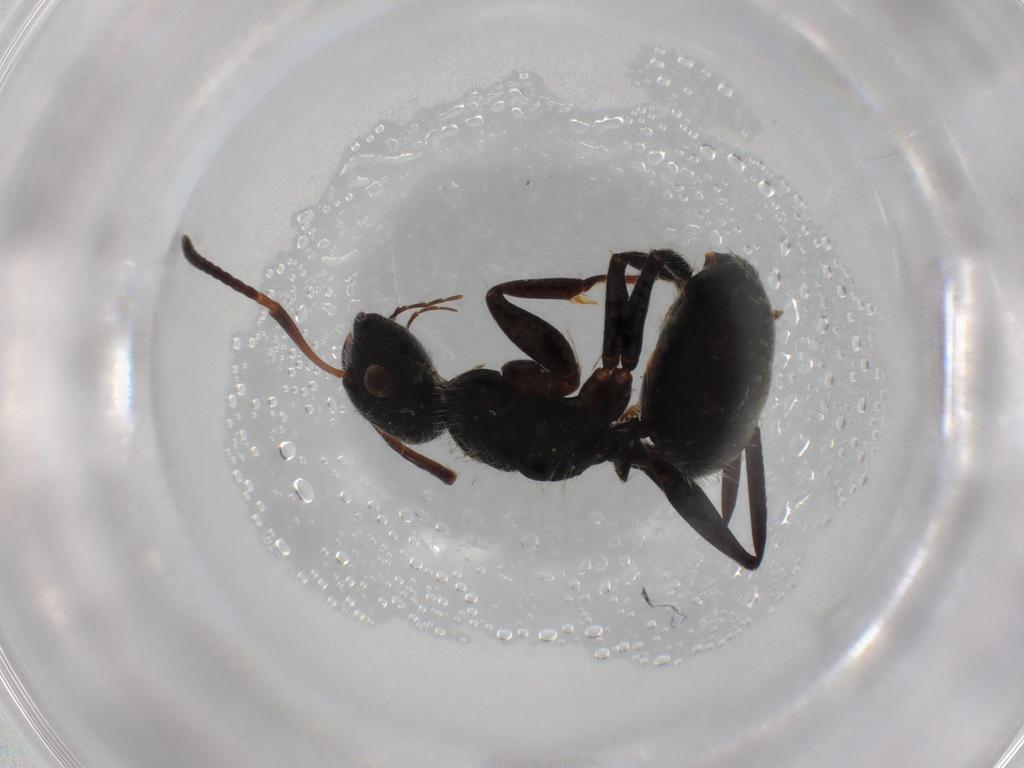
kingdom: Animalia
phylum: Arthropoda
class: Insecta
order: Hymenoptera
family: Formicidae
